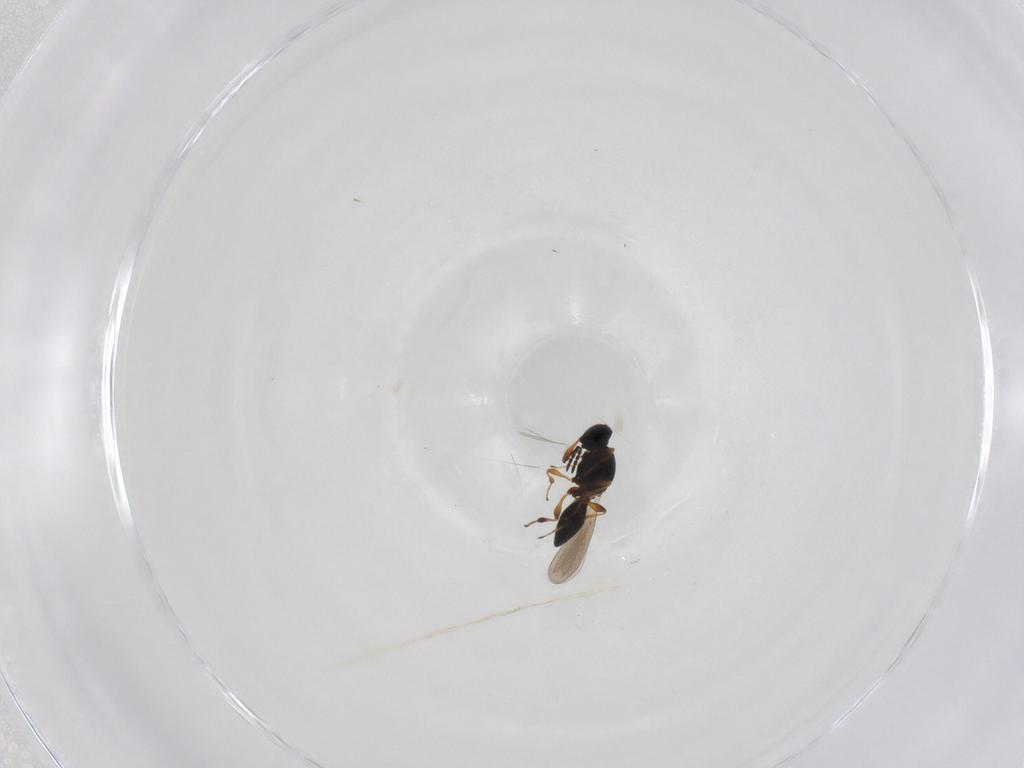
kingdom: Animalia
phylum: Arthropoda
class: Insecta
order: Hymenoptera
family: Platygastridae
